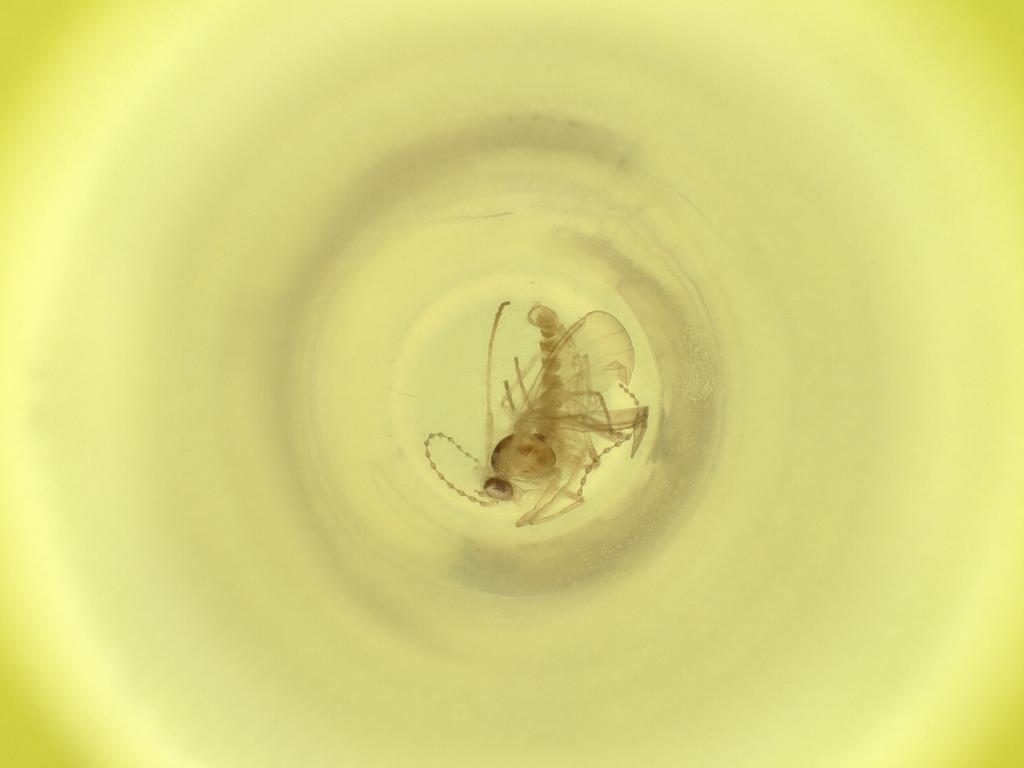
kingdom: Animalia
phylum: Arthropoda
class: Insecta
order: Diptera
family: Cecidomyiidae
